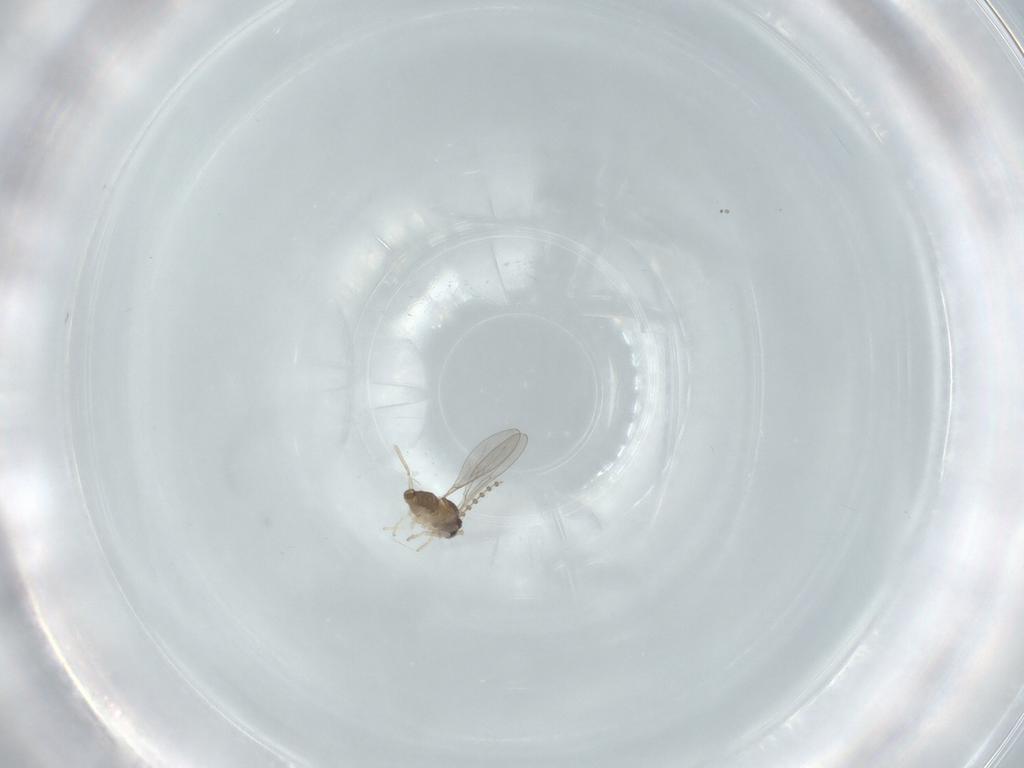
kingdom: Animalia
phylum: Arthropoda
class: Insecta
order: Diptera
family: Cecidomyiidae
